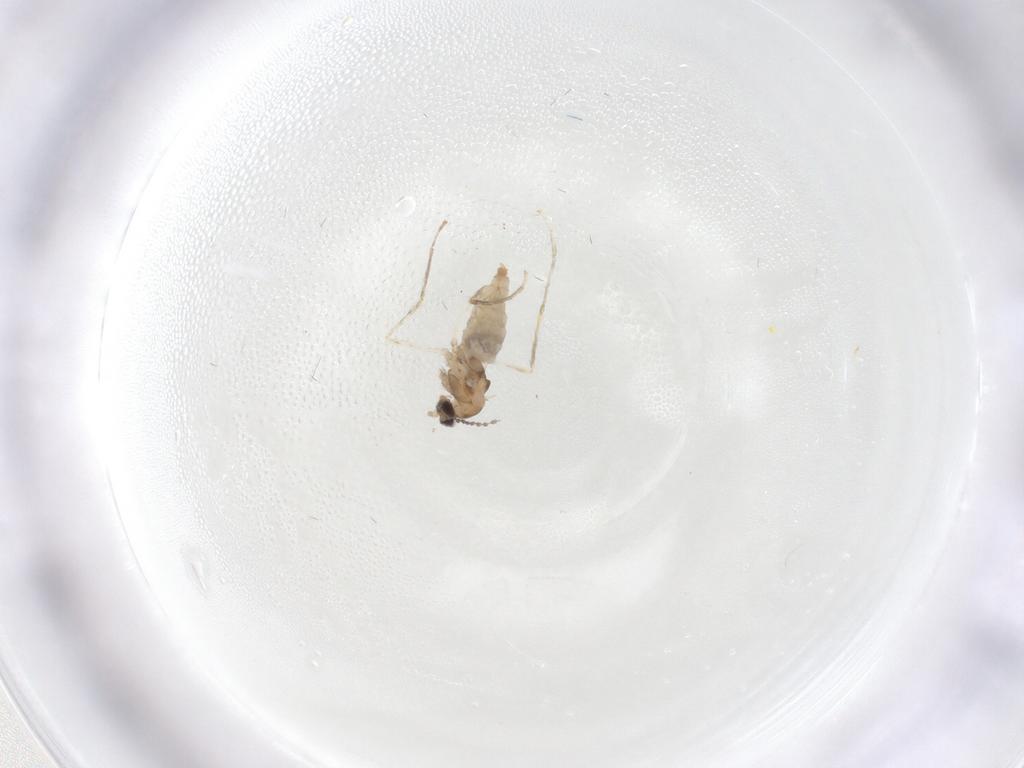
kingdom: Animalia
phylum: Arthropoda
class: Insecta
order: Diptera
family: Cecidomyiidae
